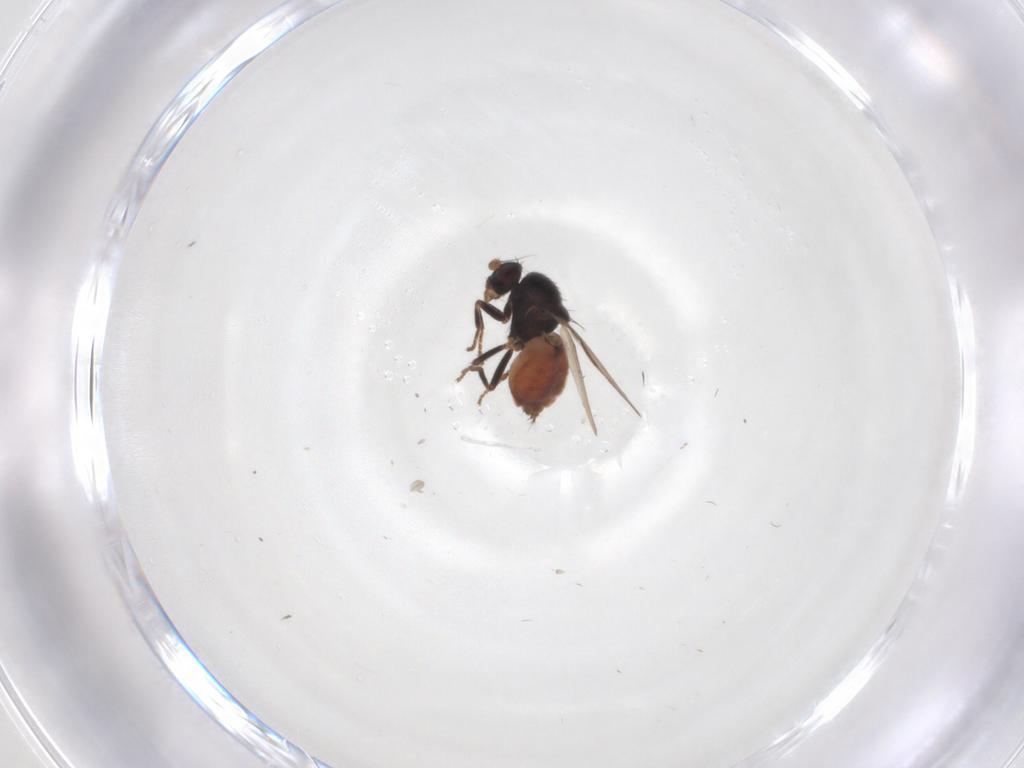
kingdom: Animalia
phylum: Arthropoda
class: Insecta
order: Diptera
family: Sphaeroceridae
